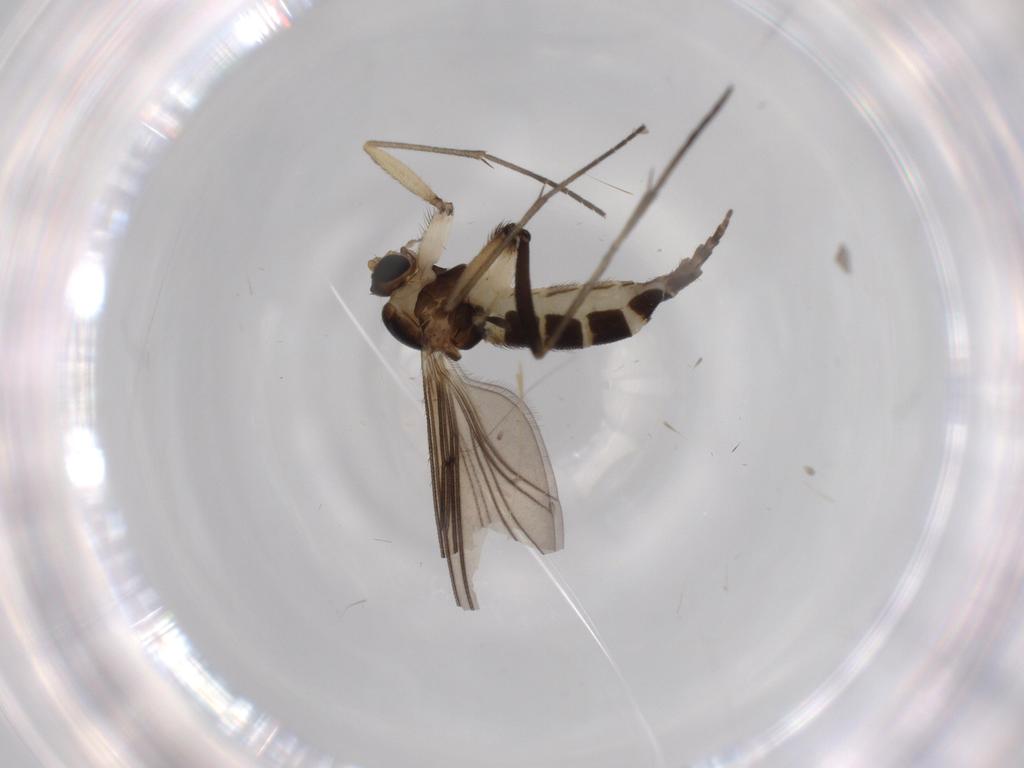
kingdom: Animalia
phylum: Arthropoda
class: Insecta
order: Diptera
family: Sciaridae
